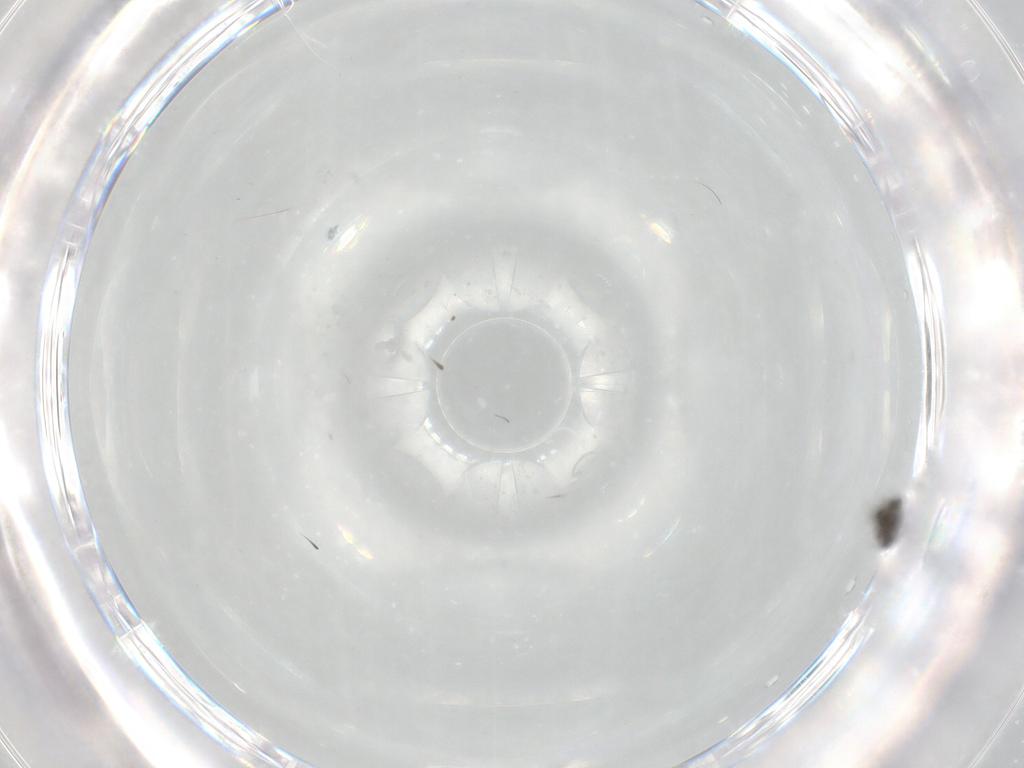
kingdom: Animalia
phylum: Arthropoda
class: Insecta
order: Diptera
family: Chironomidae
